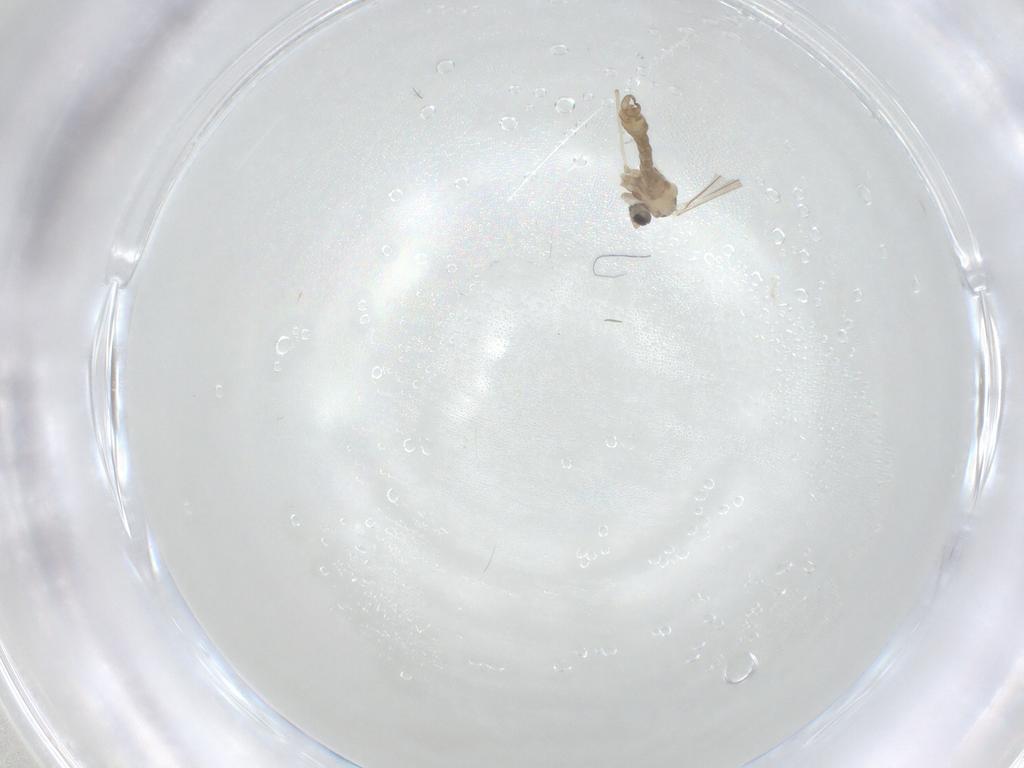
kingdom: Animalia
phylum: Arthropoda
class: Insecta
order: Diptera
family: Cecidomyiidae
